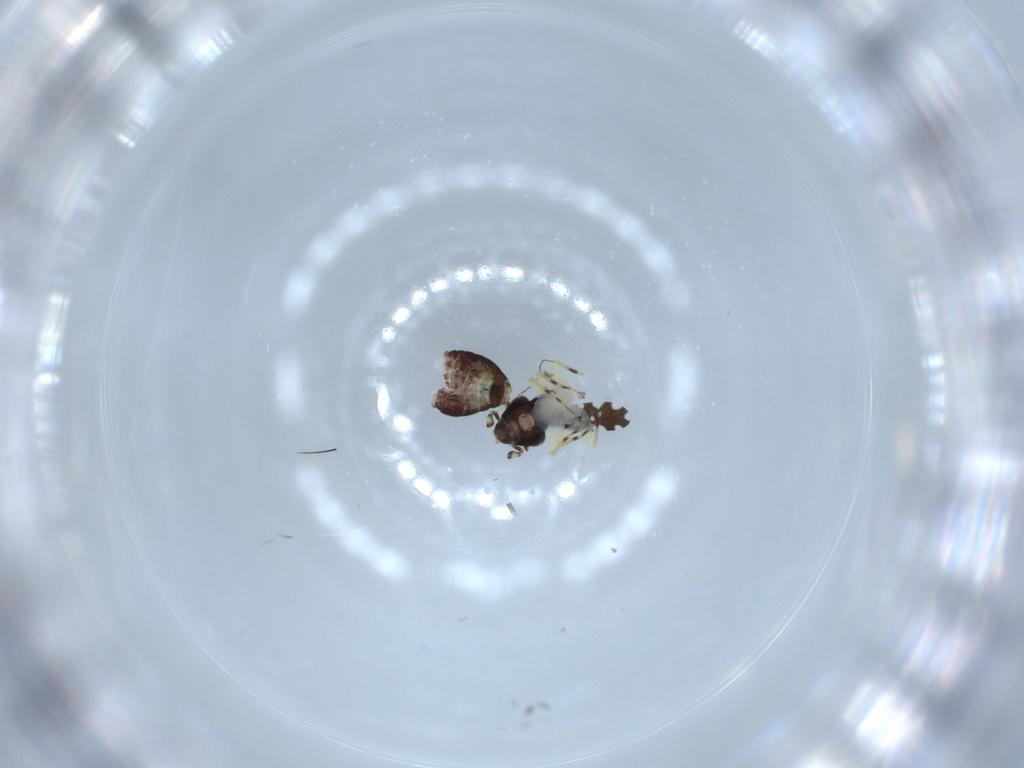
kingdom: Animalia
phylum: Arthropoda
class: Insecta
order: Psocodea
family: Psoquillidae
